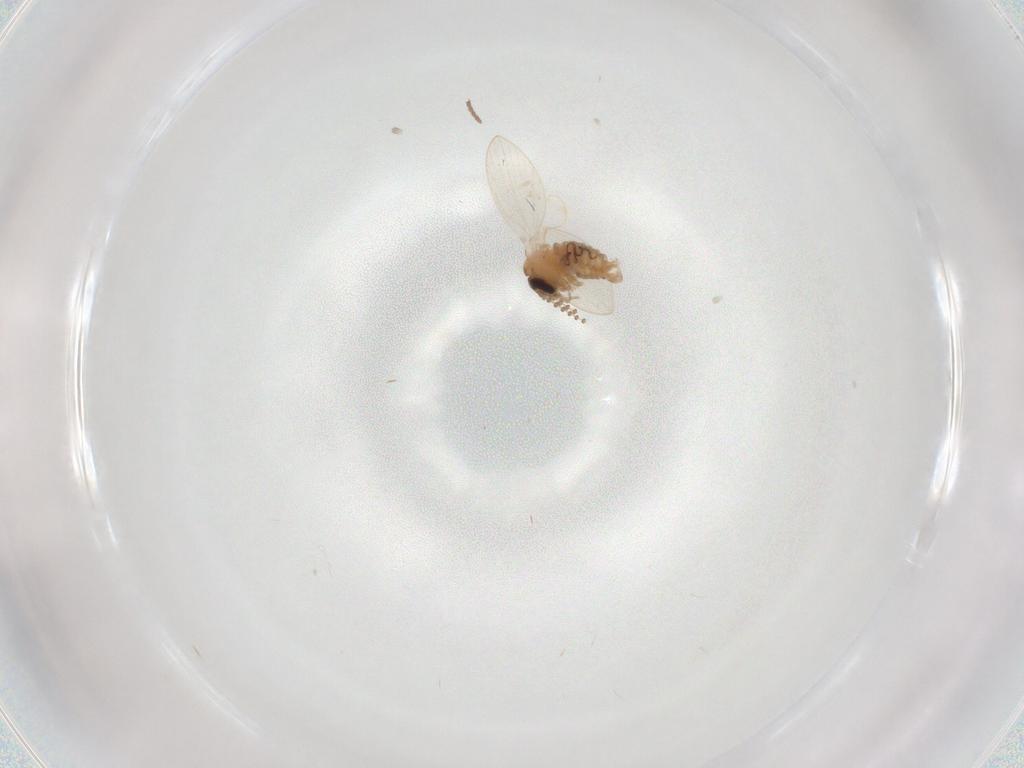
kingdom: Animalia
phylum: Arthropoda
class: Insecta
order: Diptera
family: Psychodidae
